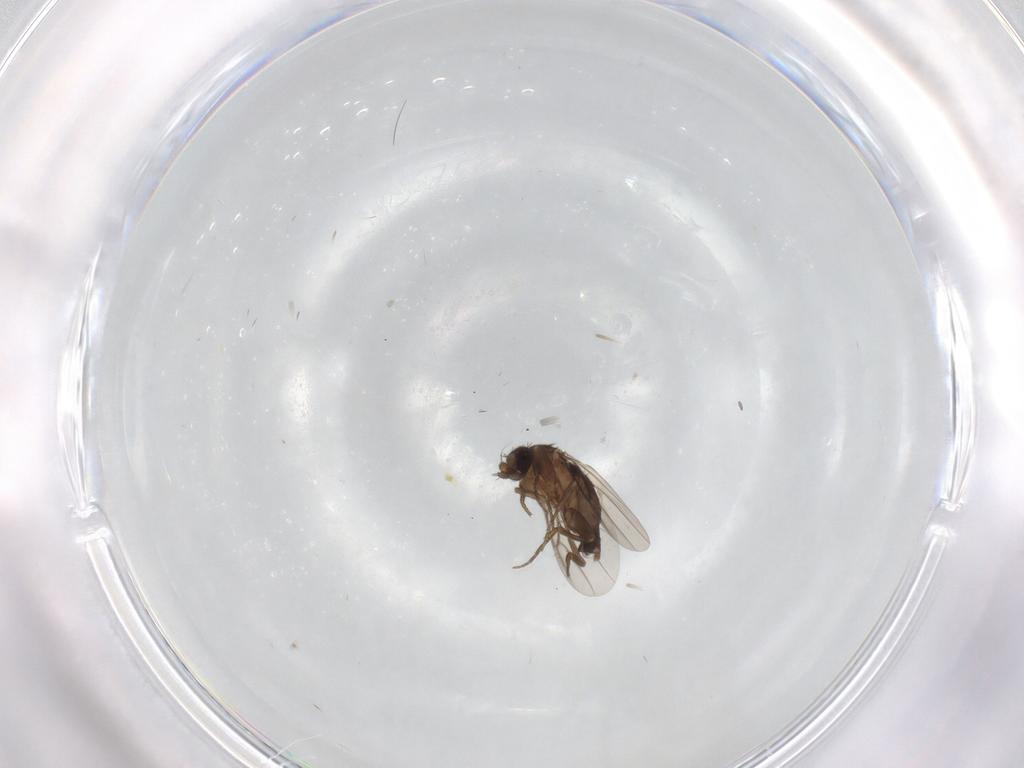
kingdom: Animalia
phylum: Arthropoda
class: Insecta
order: Diptera
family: Phoridae
